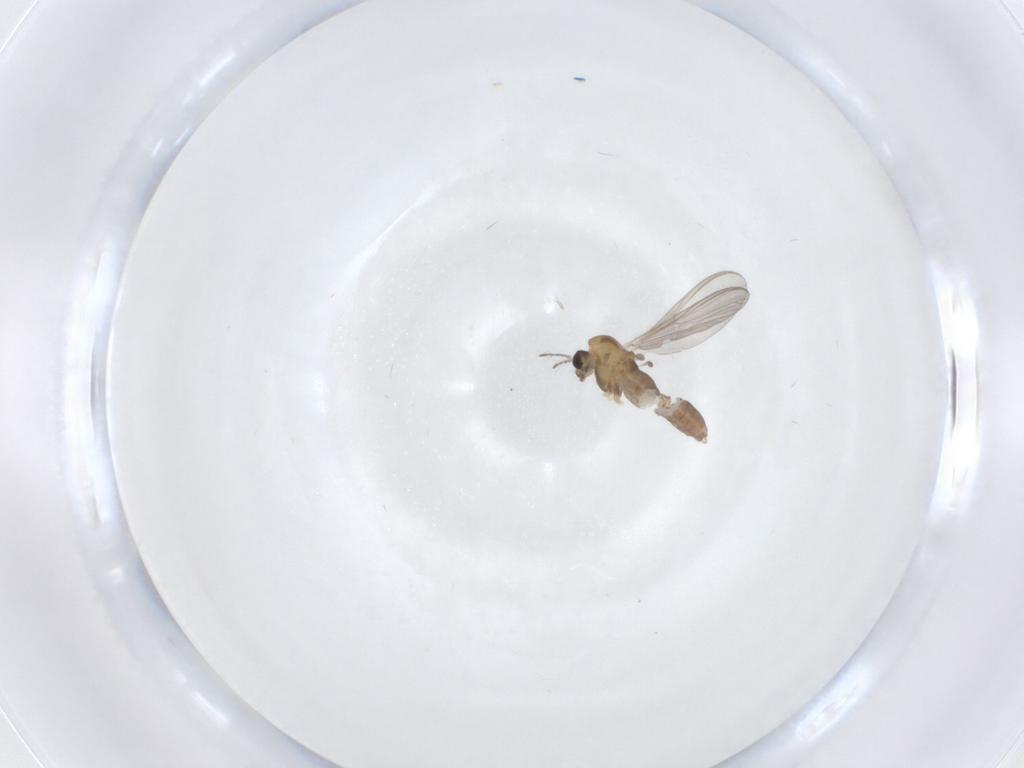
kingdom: Animalia
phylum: Arthropoda
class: Insecta
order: Diptera
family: Chironomidae
